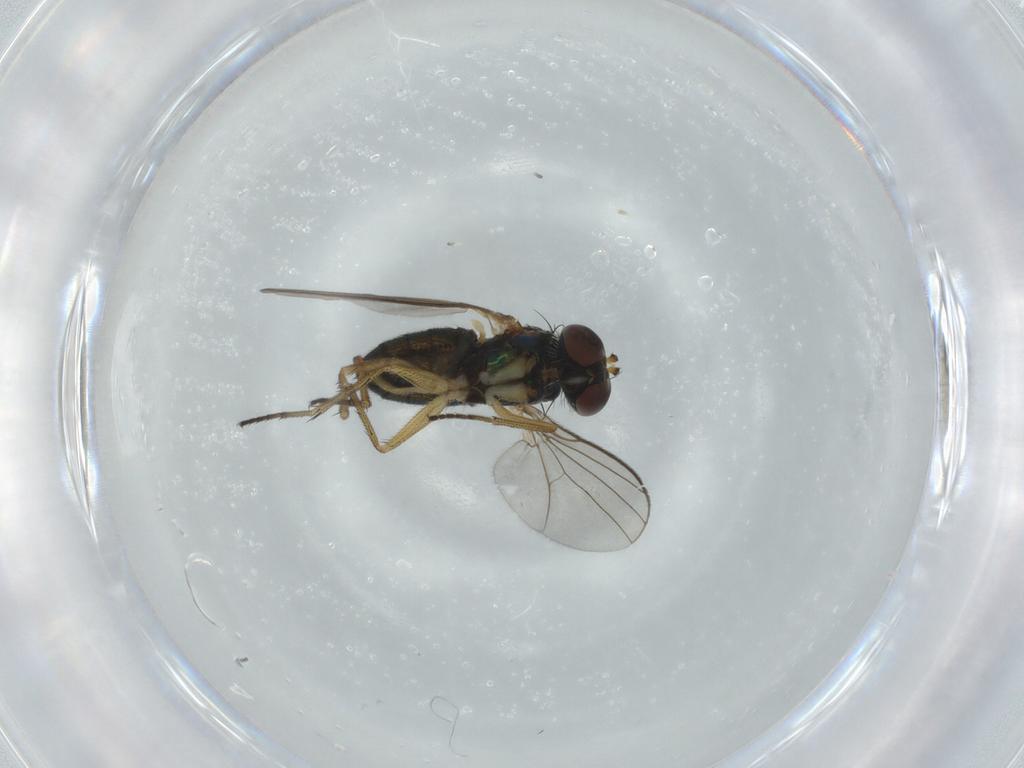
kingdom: Animalia
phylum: Arthropoda
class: Insecta
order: Diptera
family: Dolichopodidae
